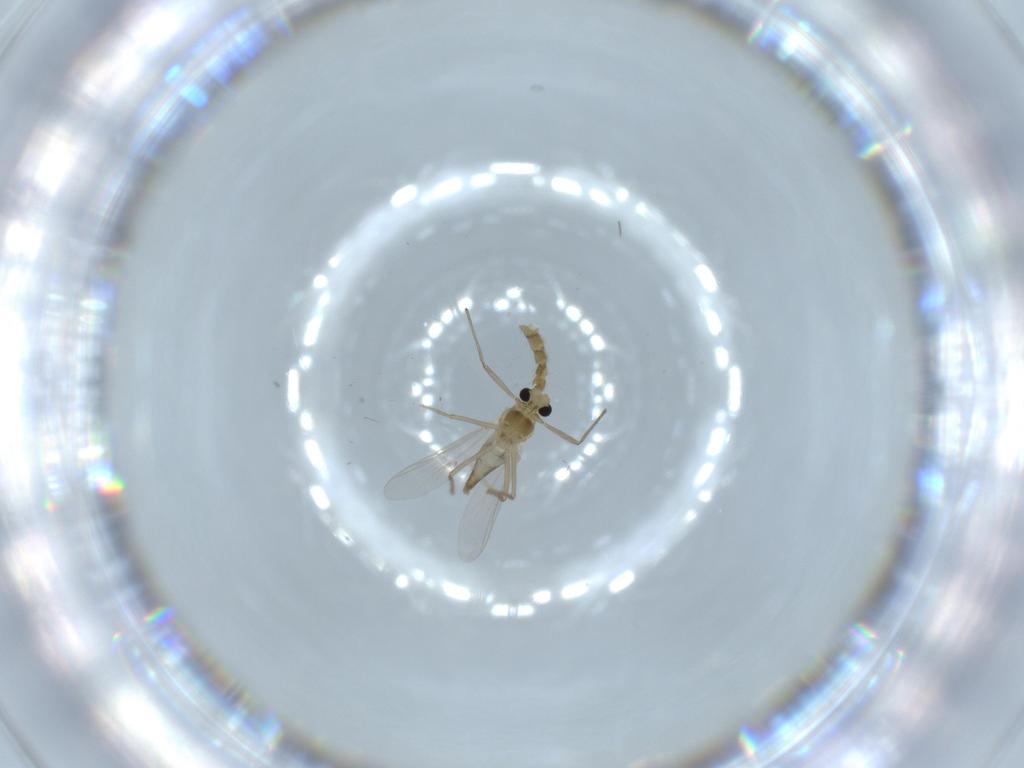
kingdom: Animalia
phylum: Arthropoda
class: Insecta
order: Diptera
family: Chironomidae
